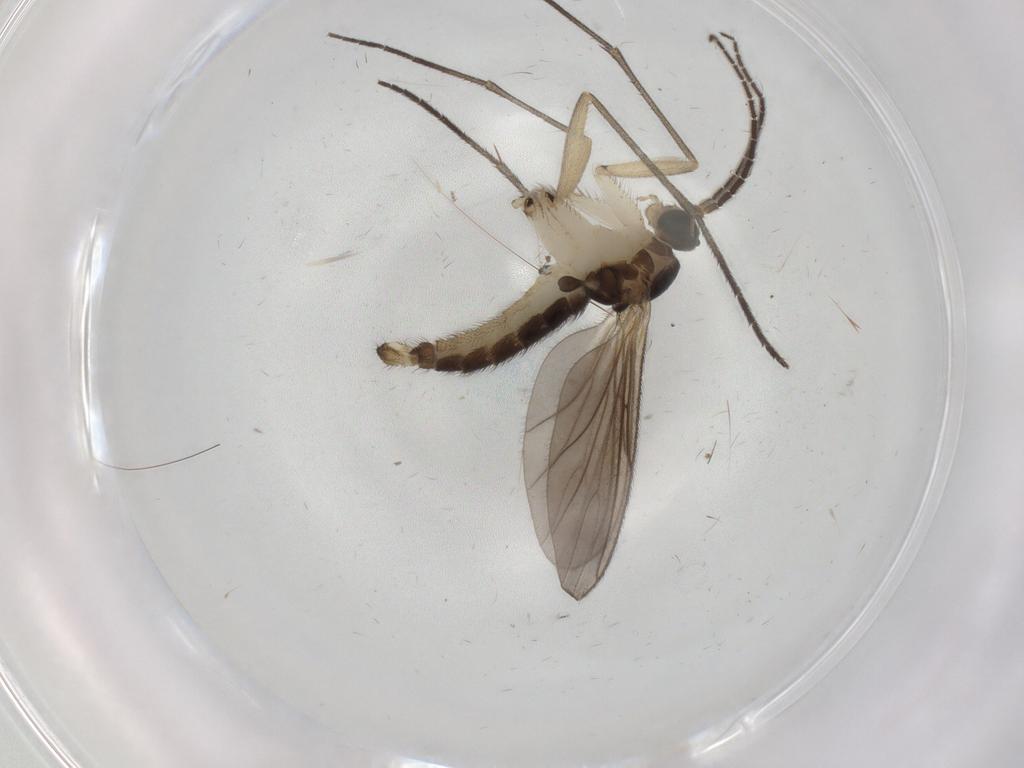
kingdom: Animalia
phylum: Arthropoda
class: Insecta
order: Diptera
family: Sciaridae
